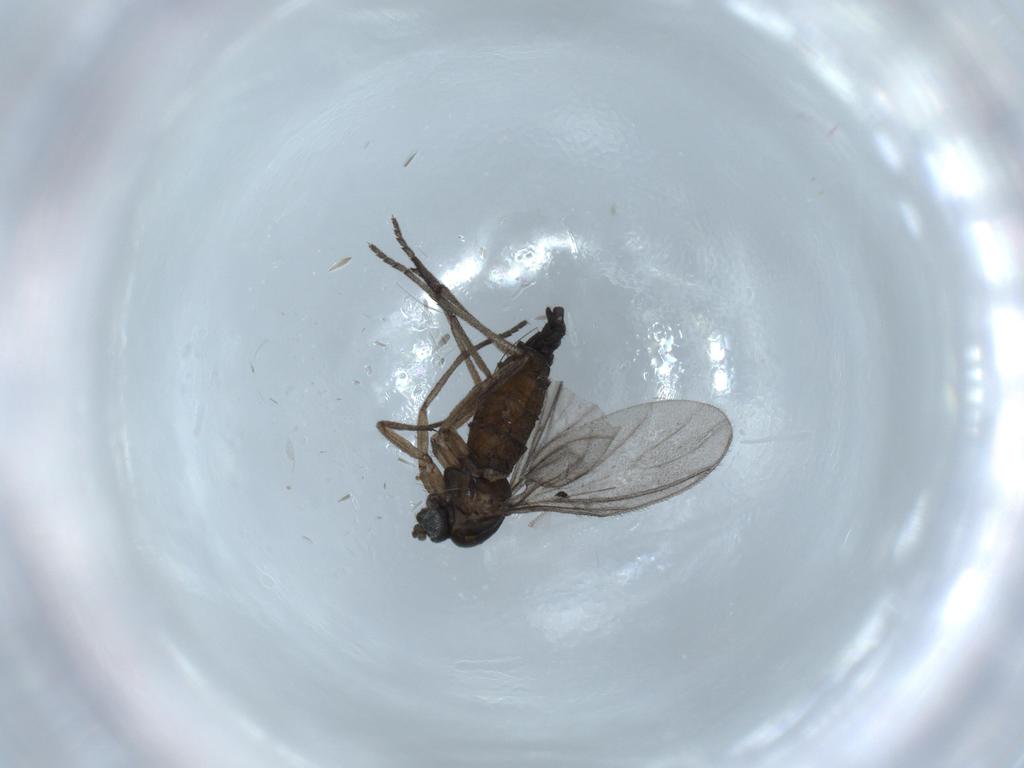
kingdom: Animalia
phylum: Arthropoda
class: Insecta
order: Diptera
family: Sciaridae
